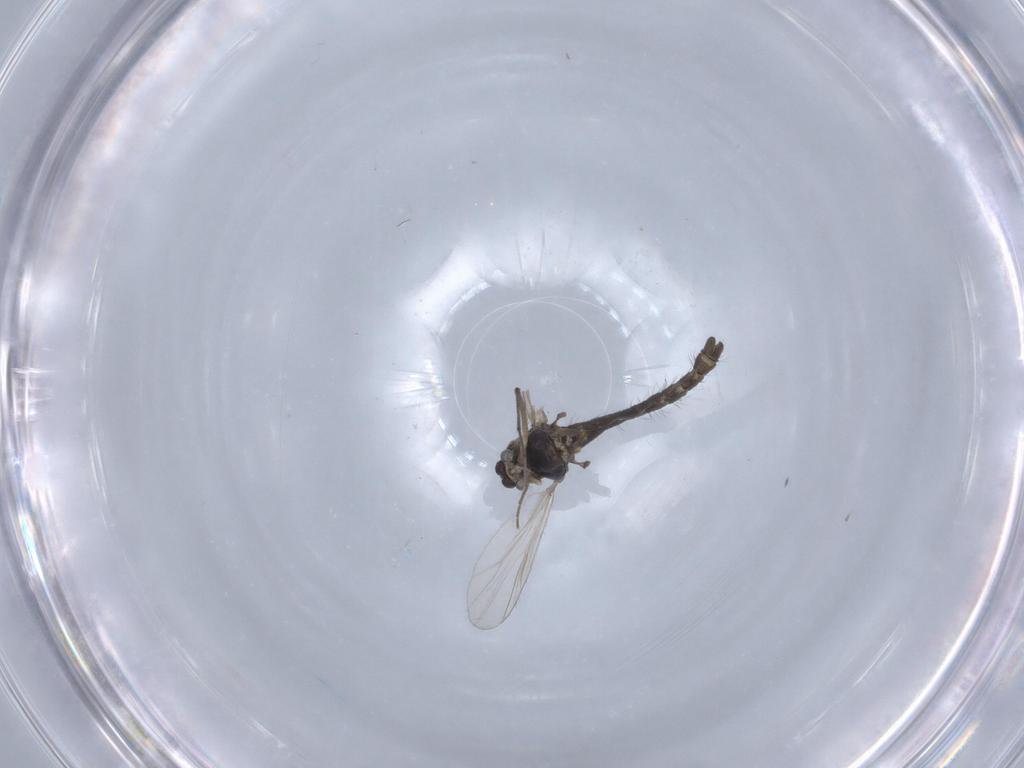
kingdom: Animalia
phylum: Arthropoda
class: Insecta
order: Diptera
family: Chironomidae
